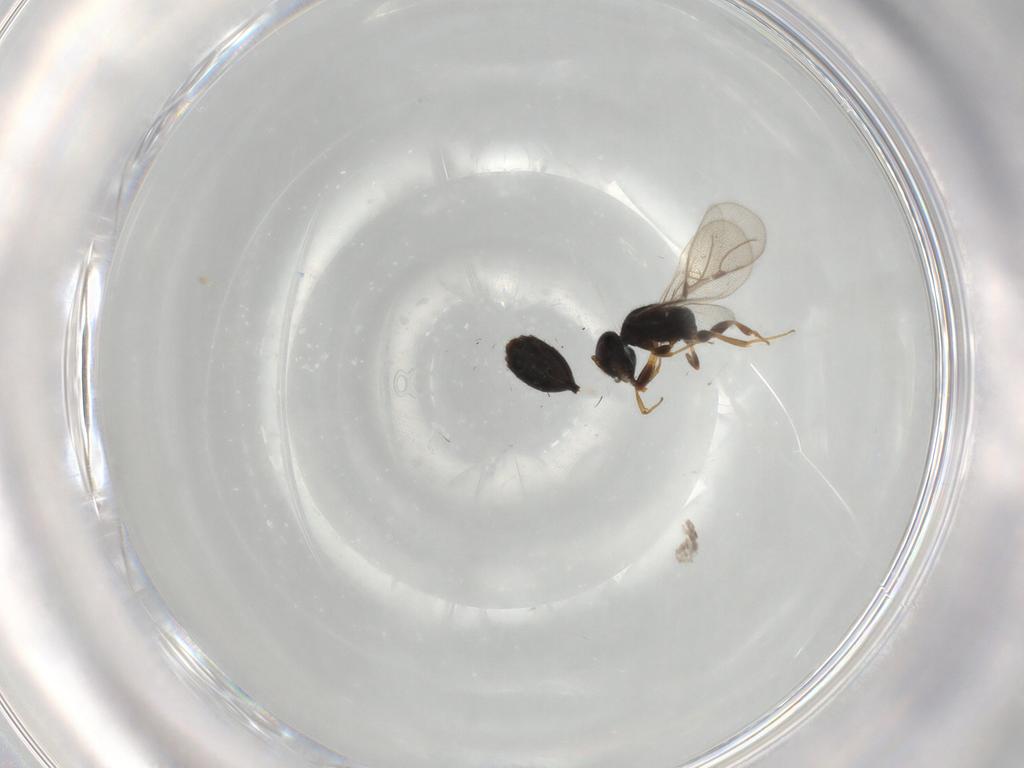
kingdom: Animalia
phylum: Arthropoda
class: Insecta
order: Hymenoptera
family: Bethylidae
